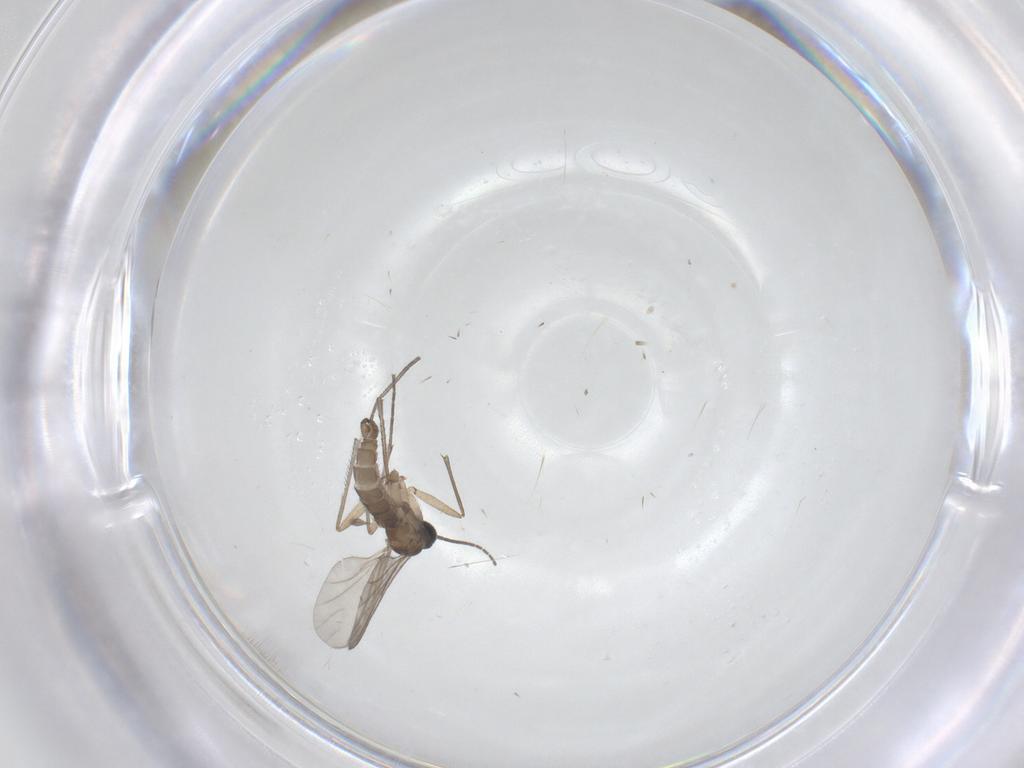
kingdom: Animalia
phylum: Arthropoda
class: Insecta
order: Diptera
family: Sciaridae
